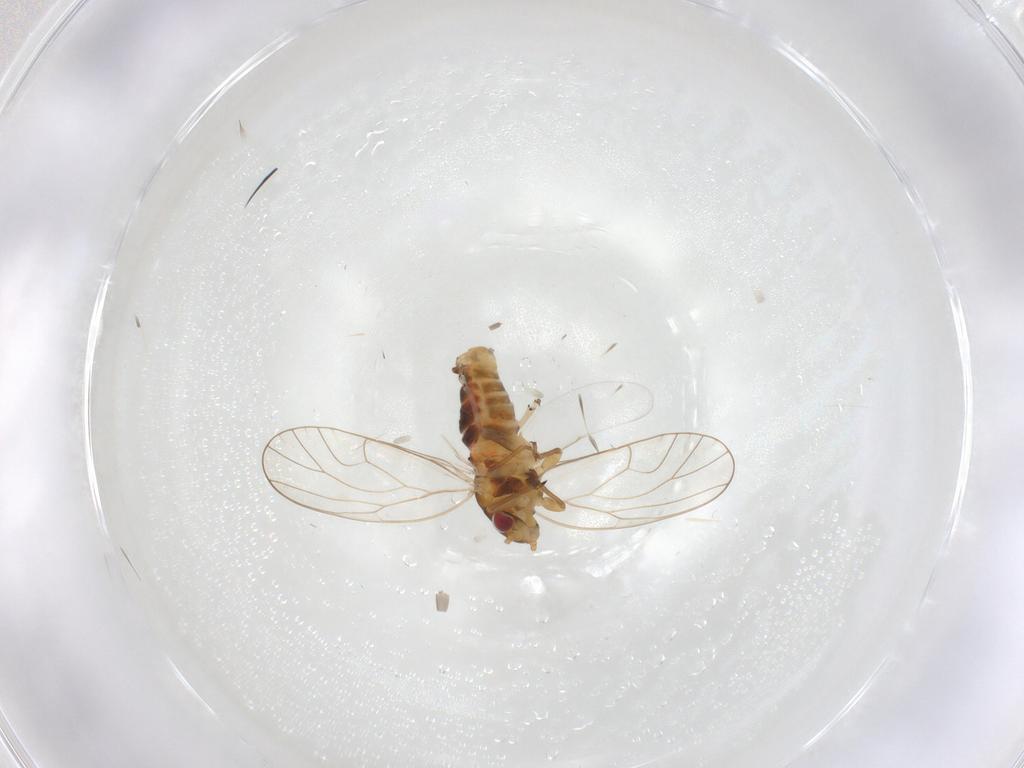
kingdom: Animalia
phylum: Arthropoda
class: Insecta
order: Hemiptera
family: Psyllidae
